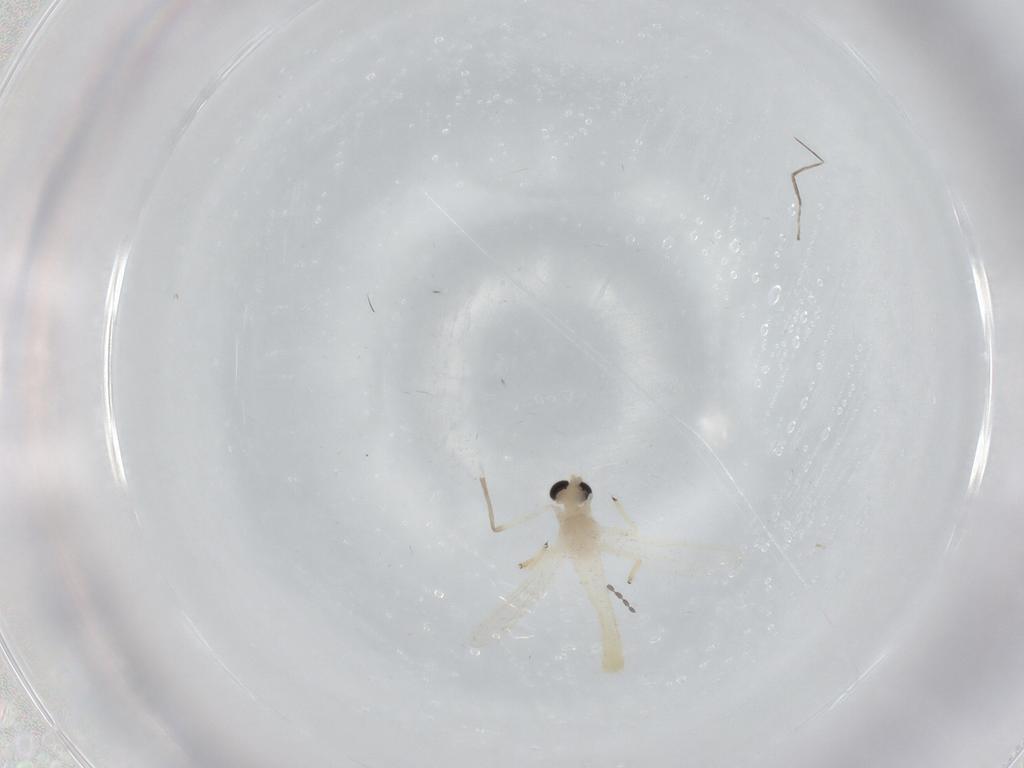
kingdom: Animalia
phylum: Arthropoda
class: Insecta
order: Diptera
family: Chironomidae
